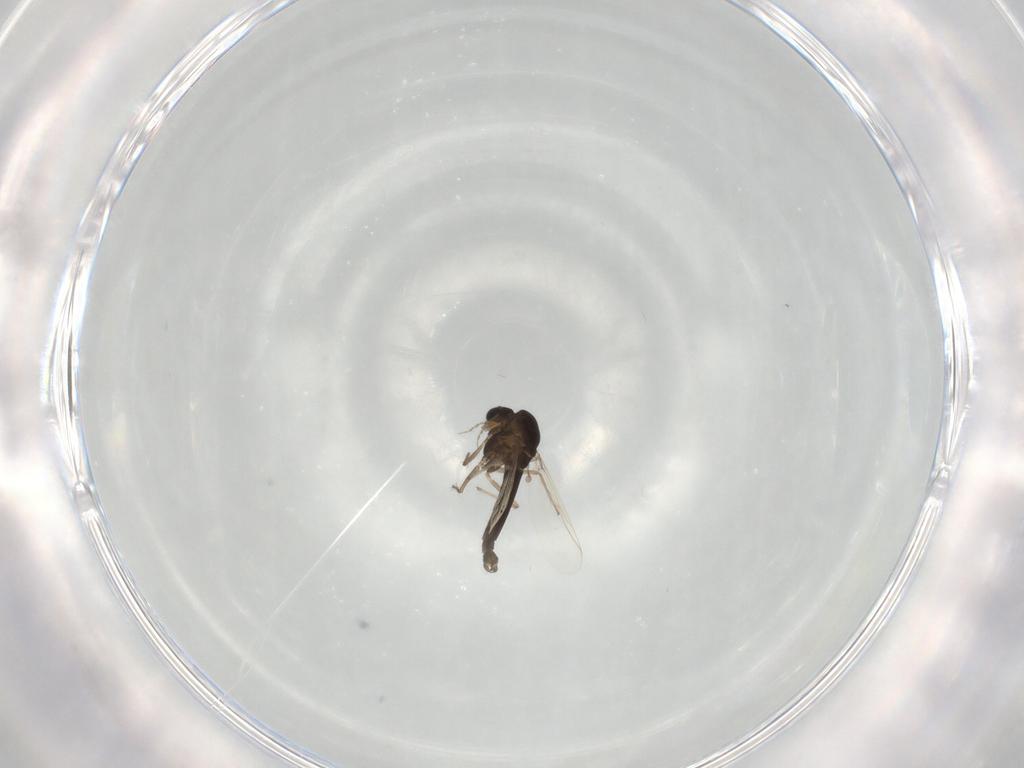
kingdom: Animalia
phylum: Arthropoda
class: Insecta
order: Diptera
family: Chironomidae
